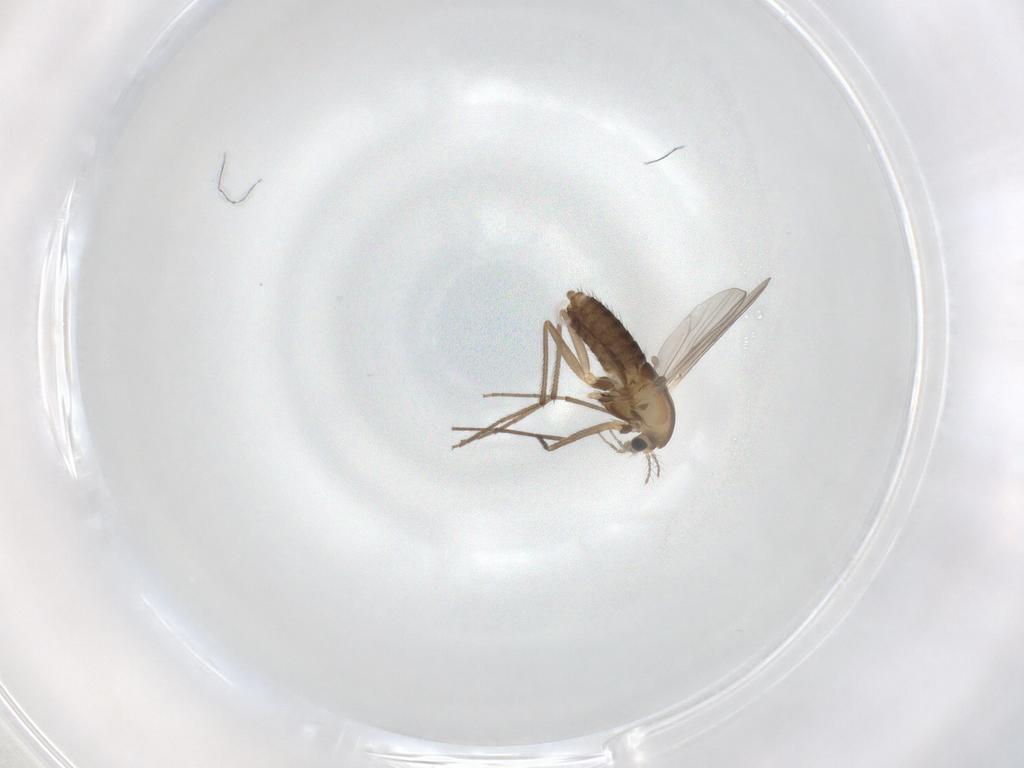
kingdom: Animalia
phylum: Arthropoda
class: Insecta
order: Diptera
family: Chironomidae
